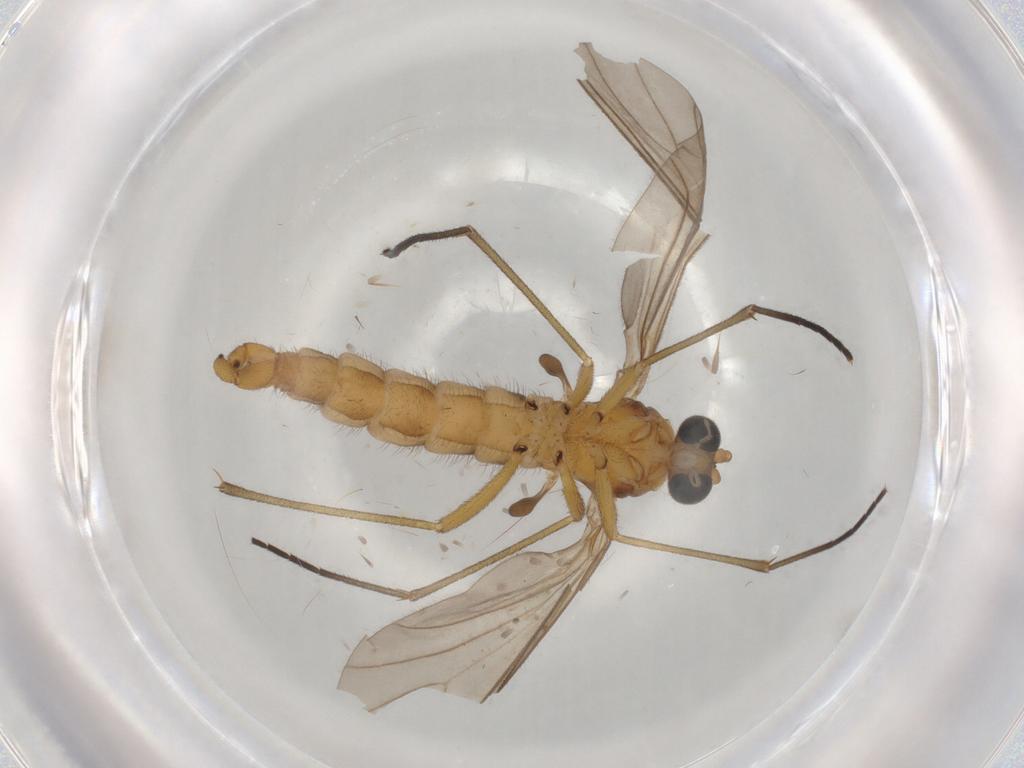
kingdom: Animalia
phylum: Arthropoda
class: Insecta
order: Diptera
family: Sciaridae
